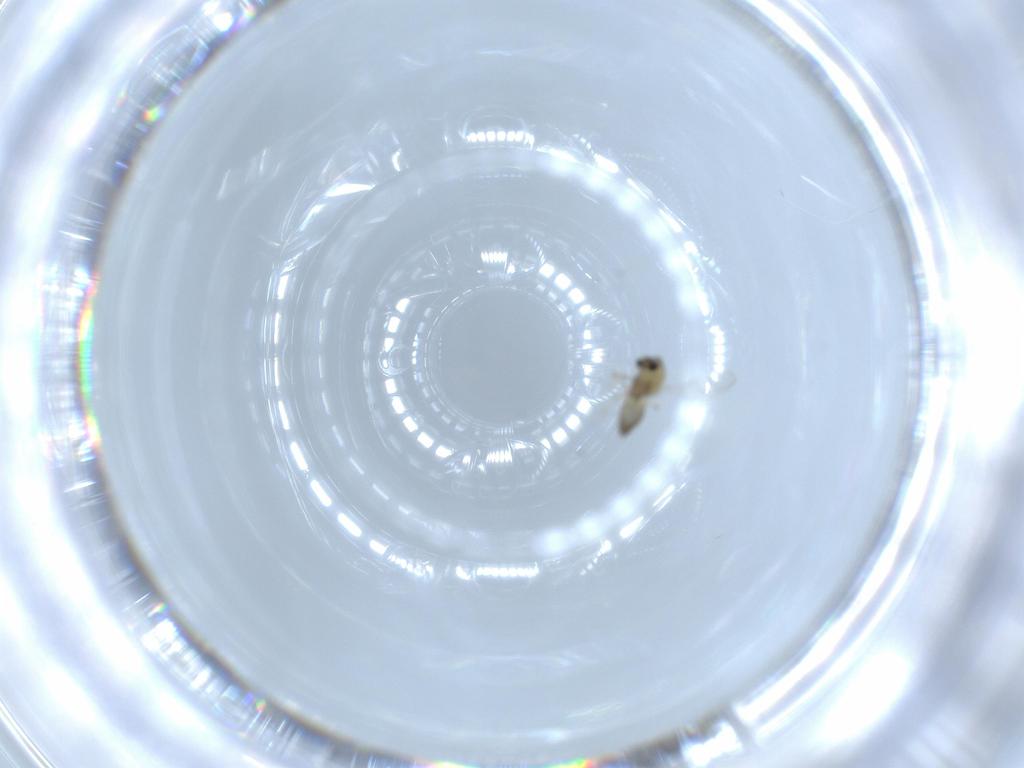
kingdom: Animalia
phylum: Arthropoda
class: Insecta
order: Diptera
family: Chironomidae
